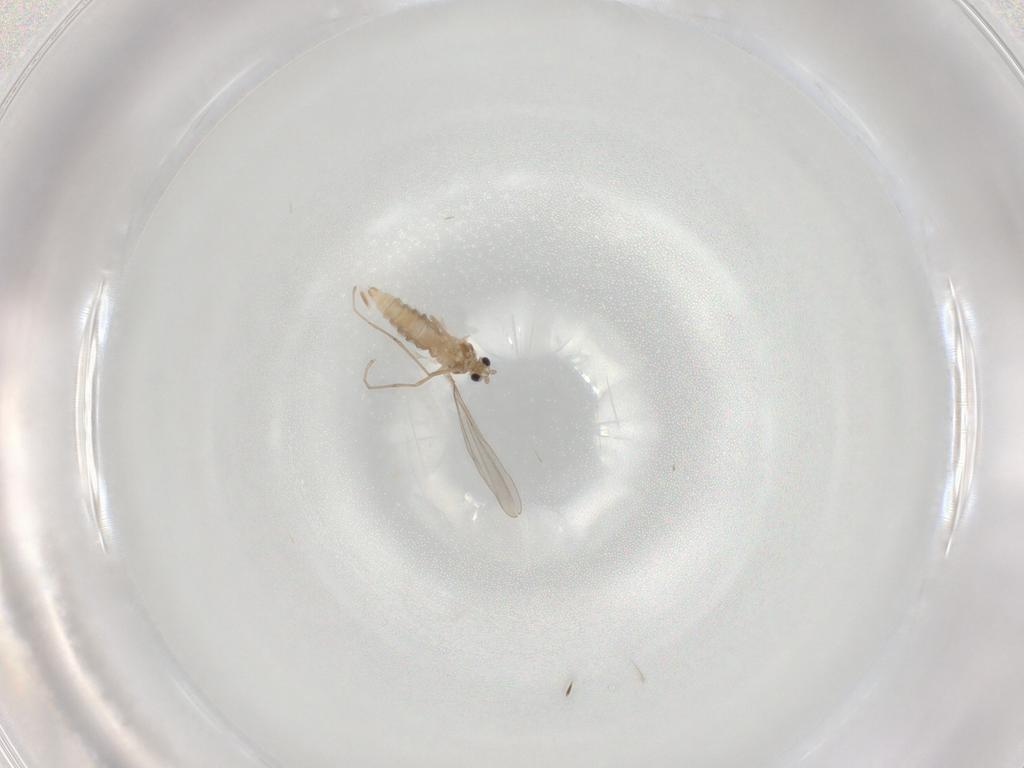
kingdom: Animalia
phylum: Arthropoda
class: Insecta
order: Diptera
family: Cecidomyiidae
